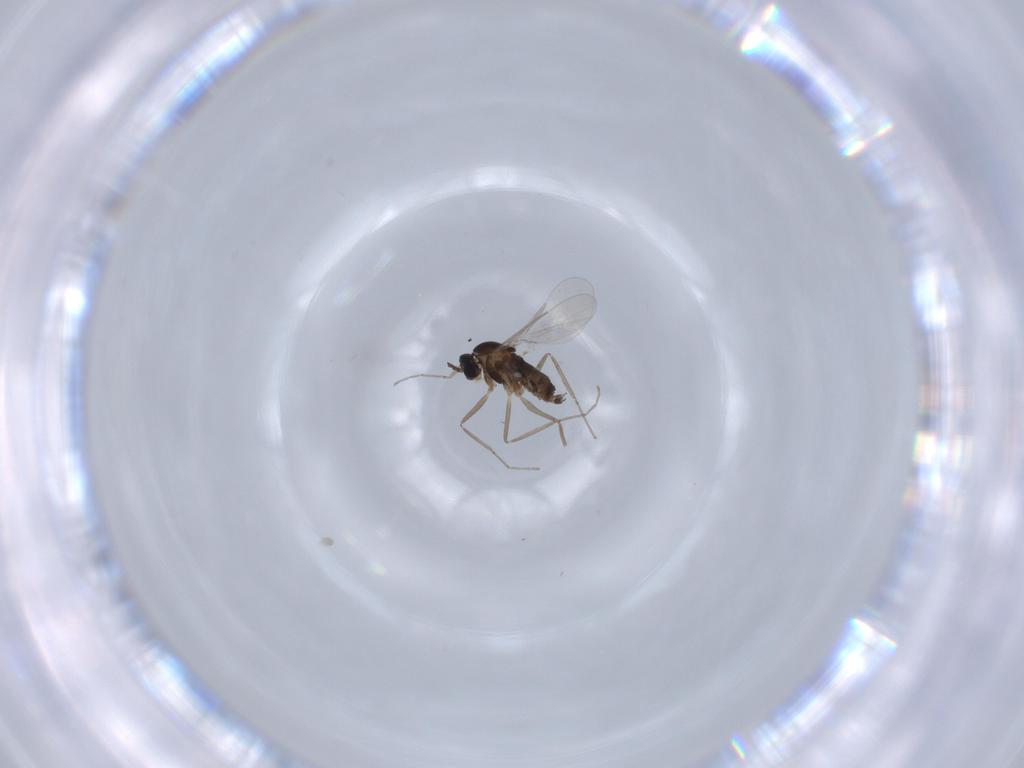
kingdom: Animalia
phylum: Arthropoda
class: Insecta
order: Diptera
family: Cecidomyiidae
